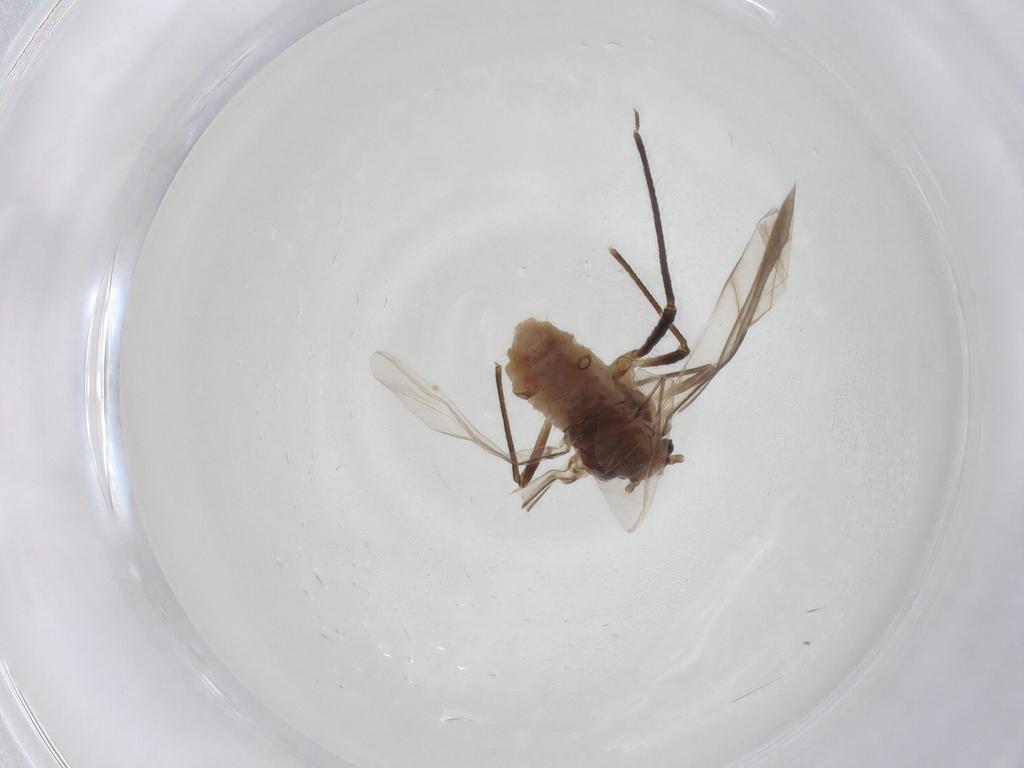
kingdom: Animalia
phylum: Arthropoda
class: Insecta
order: Hemiptera
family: Aphididae
